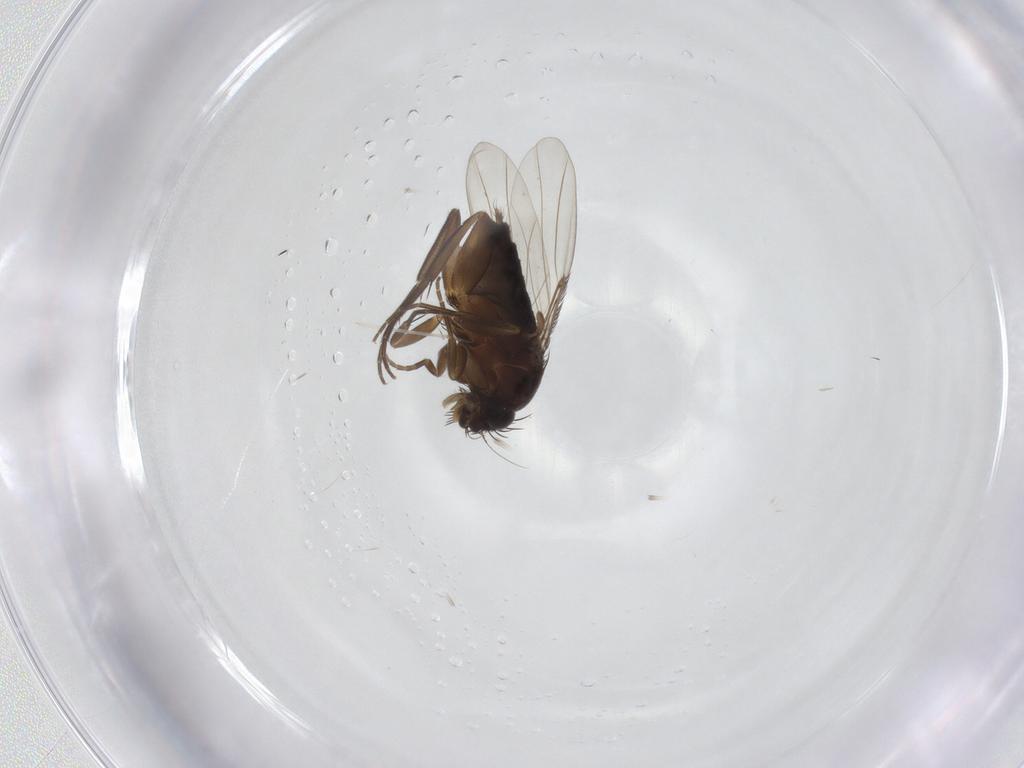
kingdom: Animalia
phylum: Arthropoda
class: Insecta
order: Diptera
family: Phoridae
